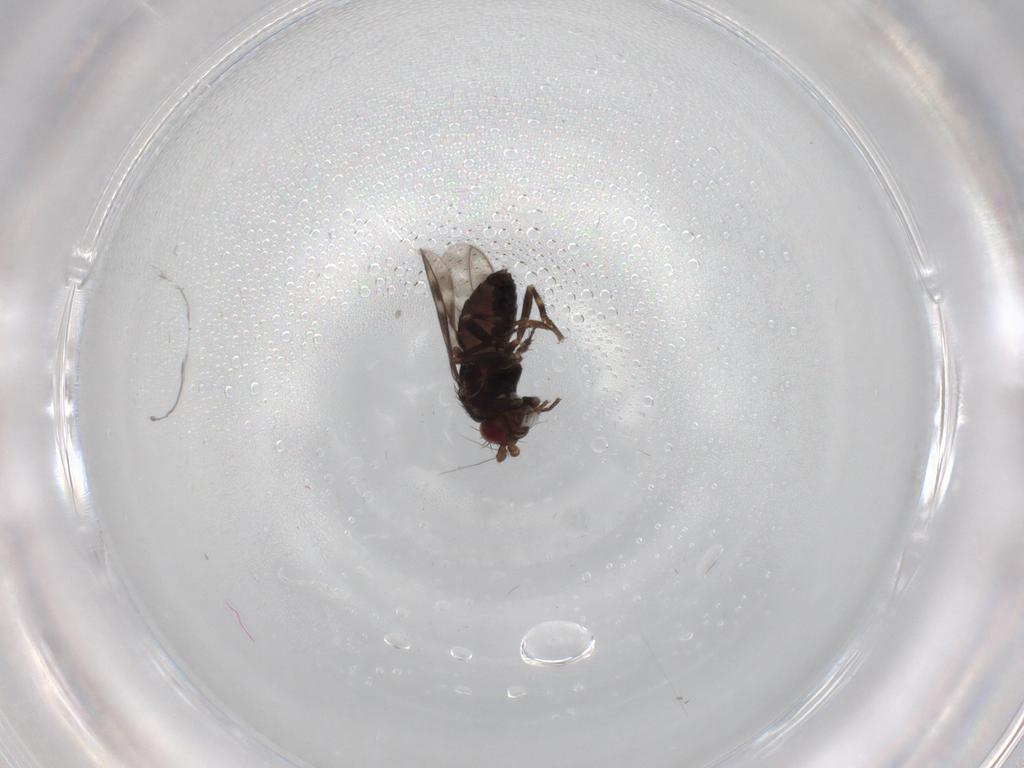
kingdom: Animalia
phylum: Arthropoda
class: Insecta
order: Diptera
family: Sphaeroceridae
